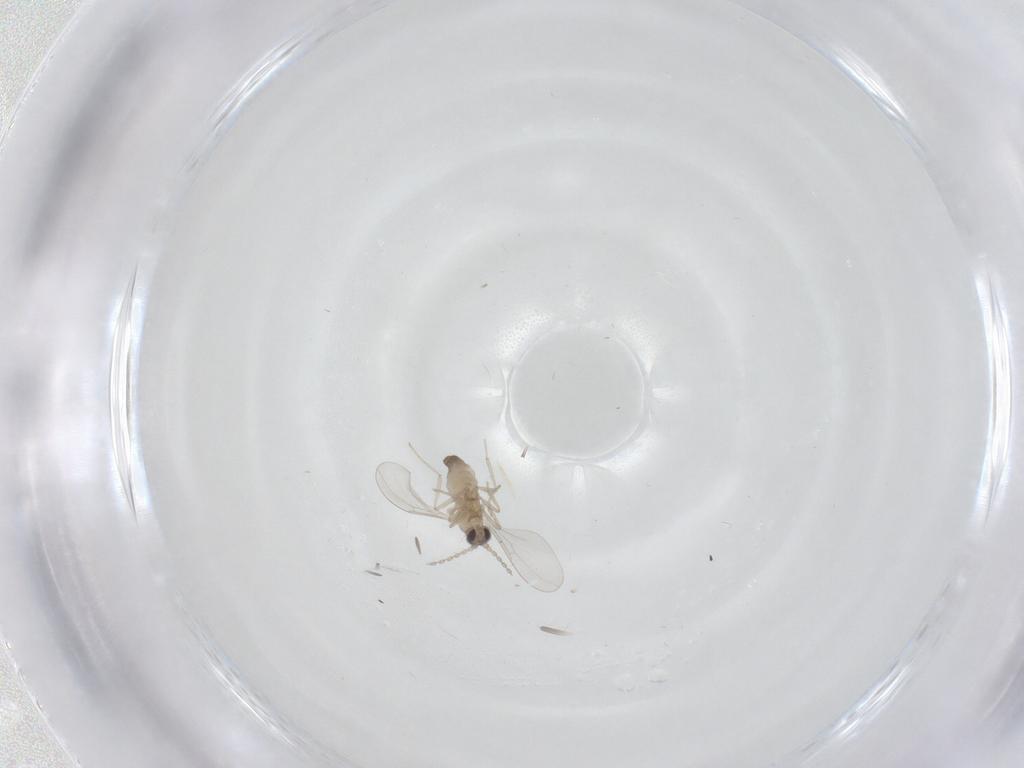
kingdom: Animalia
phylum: Arthropoda
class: Insecta
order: Diptera
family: Cecidomyiidae
